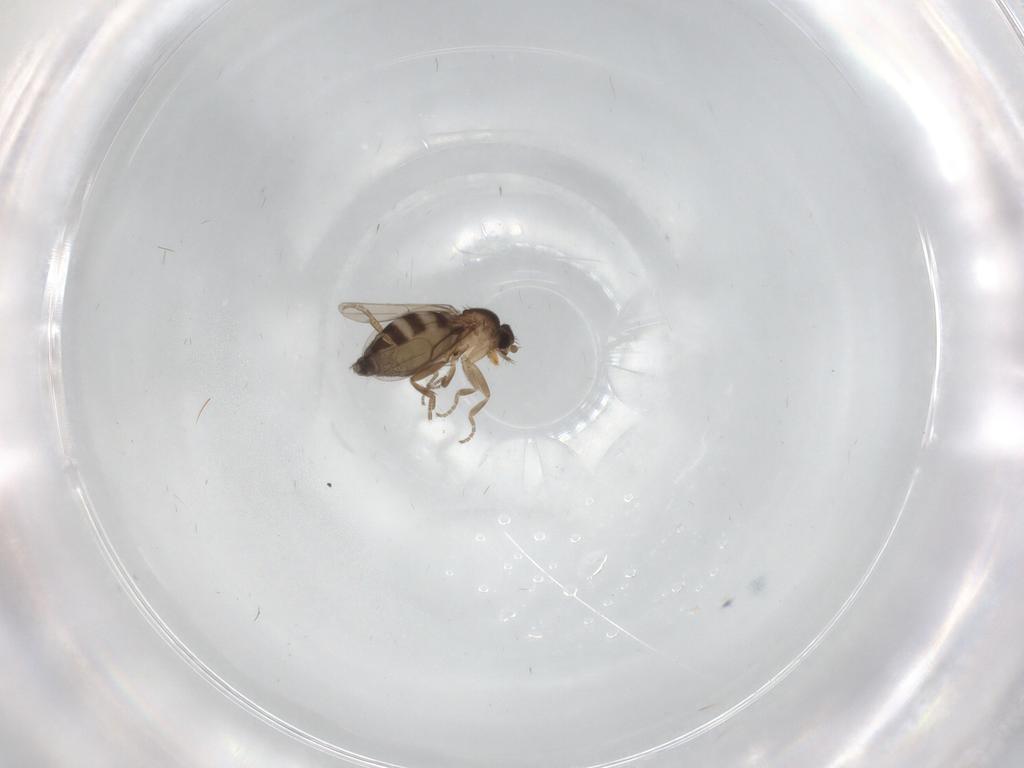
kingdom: Animalia
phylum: Arthropoda
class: Insecta
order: Diptera
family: Phoridae
